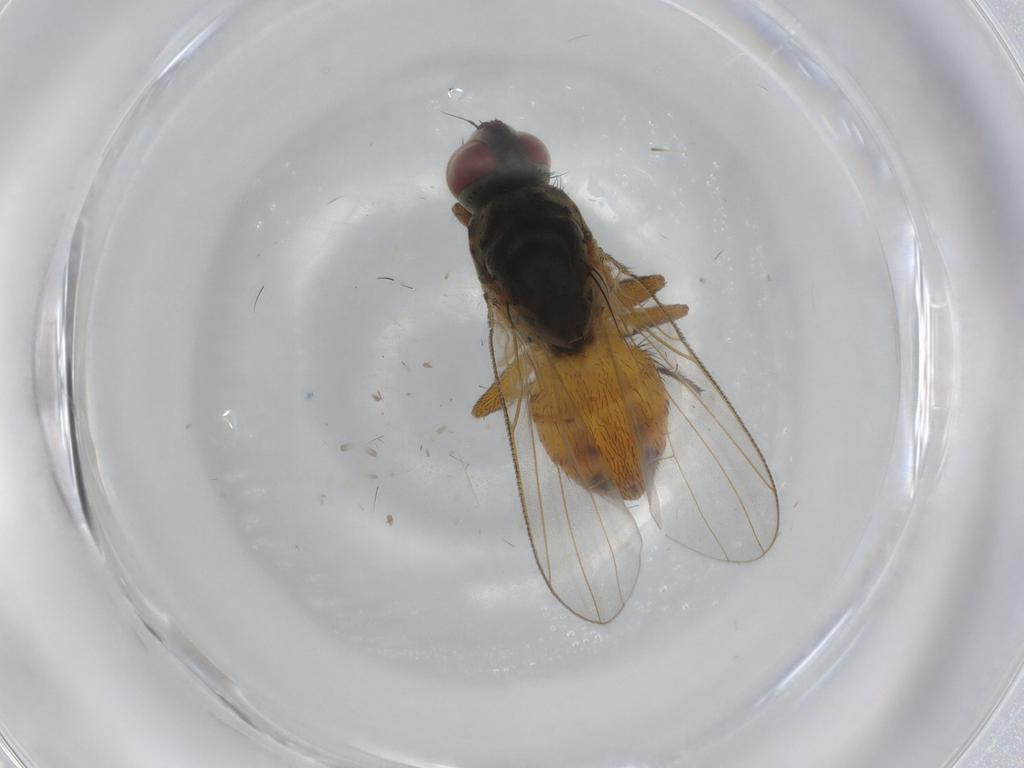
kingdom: Animalia
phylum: Arthropoda
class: Insecta
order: Diptera
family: Muscidae
